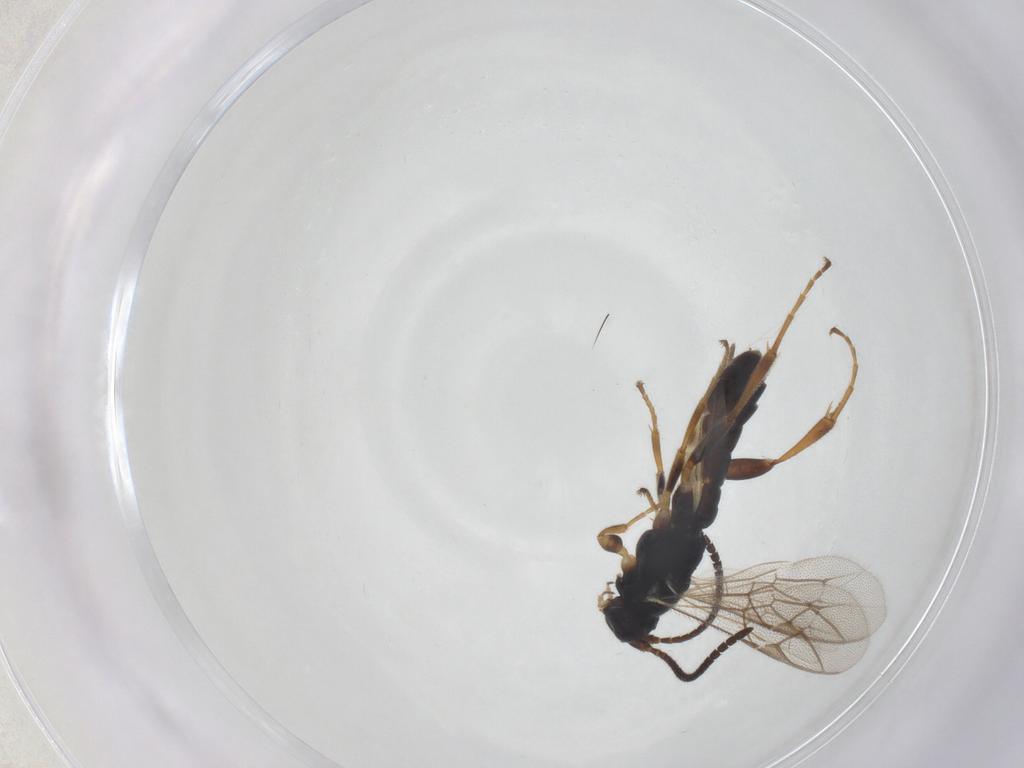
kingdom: Animalia
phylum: Arthropoda
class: Insecta
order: Hymenoptera
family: Ichneumonidae
